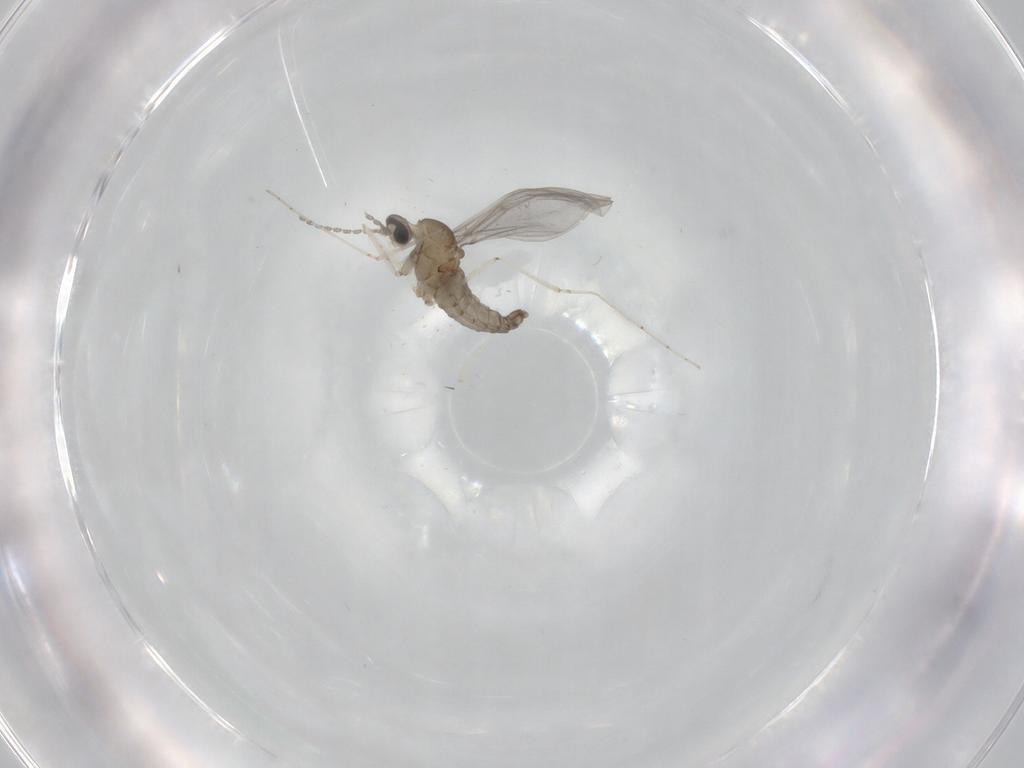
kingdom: Animalia
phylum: Arthropoda
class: Insecta
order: Diptera
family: Cecidomyiidae
